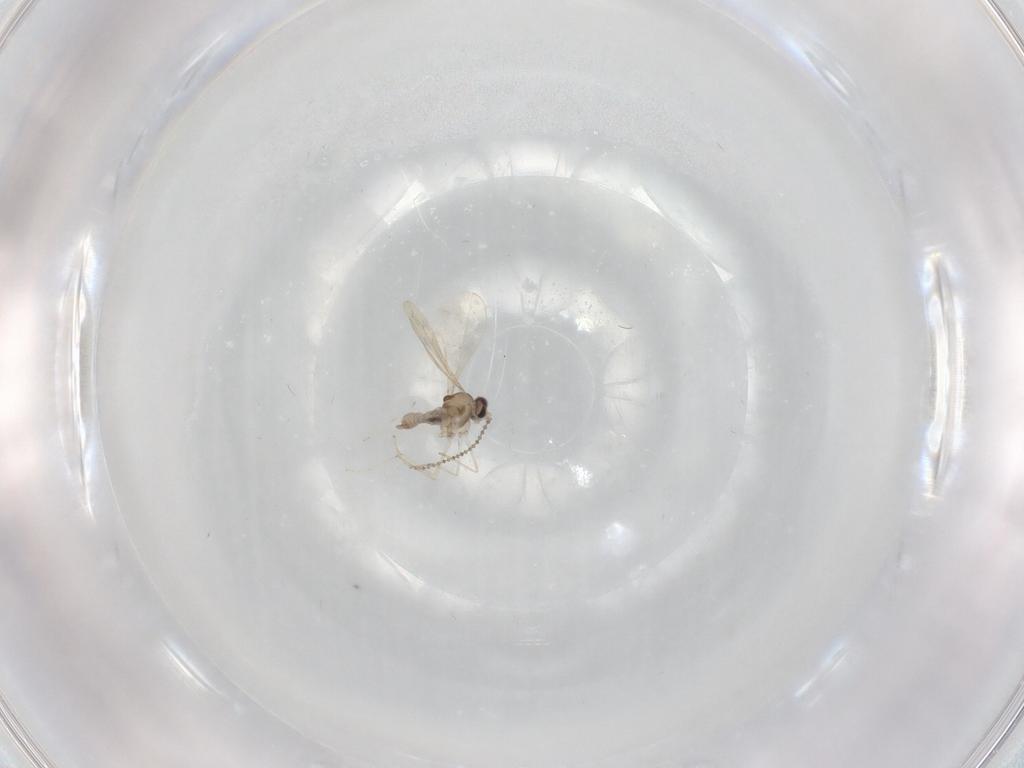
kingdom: Animalia
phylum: Arthropoda
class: Insecta
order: Diptera
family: Cecidomyiidae
